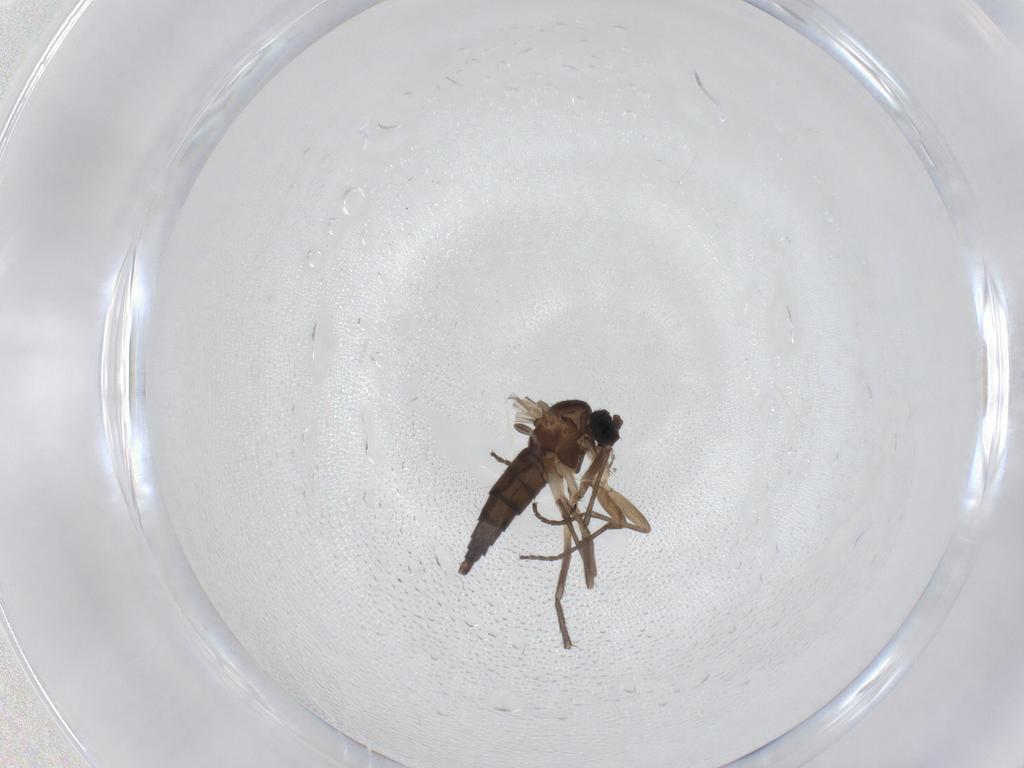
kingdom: Animalia
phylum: Arthropoda
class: Insecta
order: Diptera
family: Sciaridae
